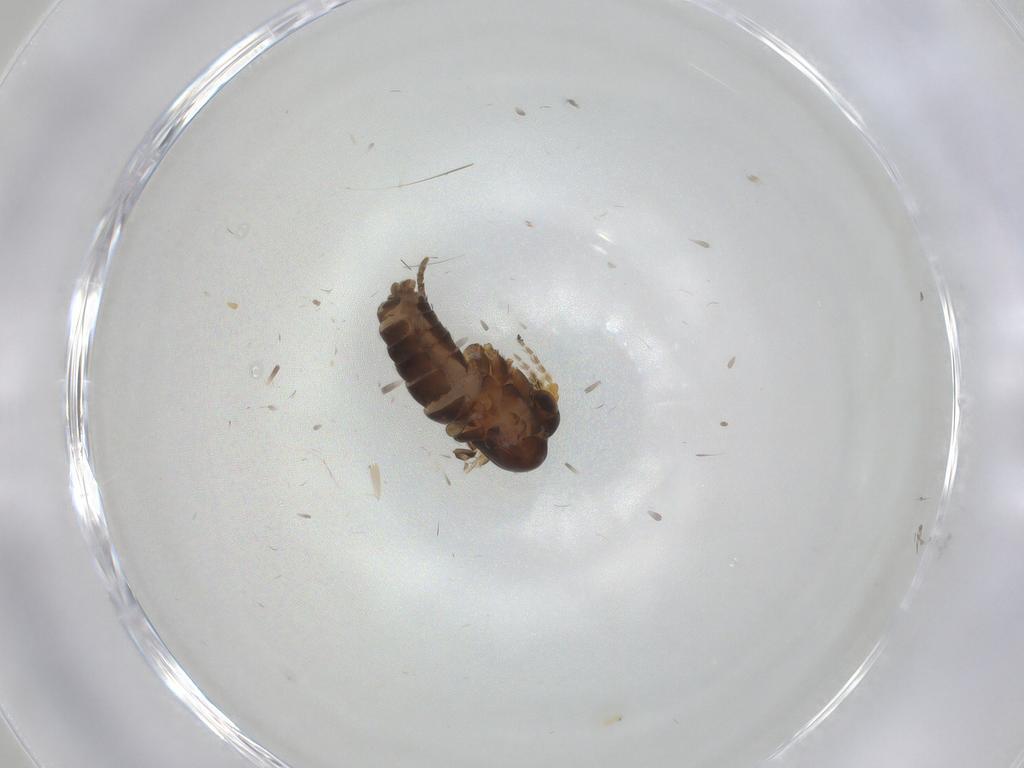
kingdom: Animalia
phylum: Arthropoda
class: Insecta
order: Diptera
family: Psychodidae
